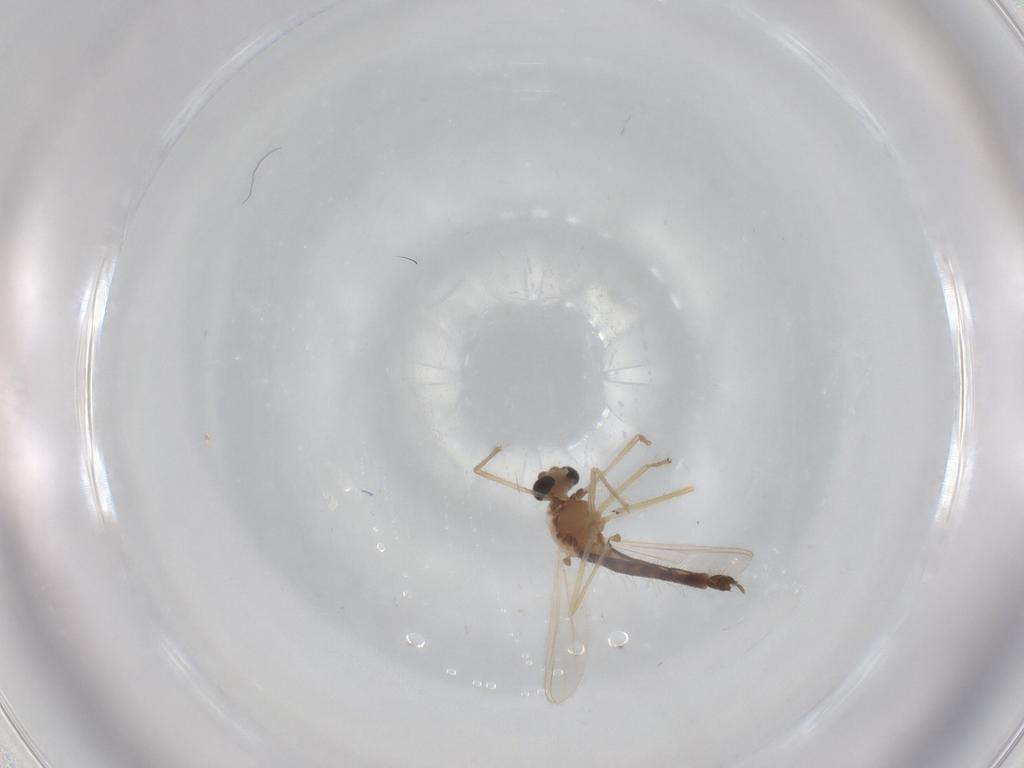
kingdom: Animalia
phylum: Arthropoda
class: Insecta
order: Diptera
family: Chironomidae
